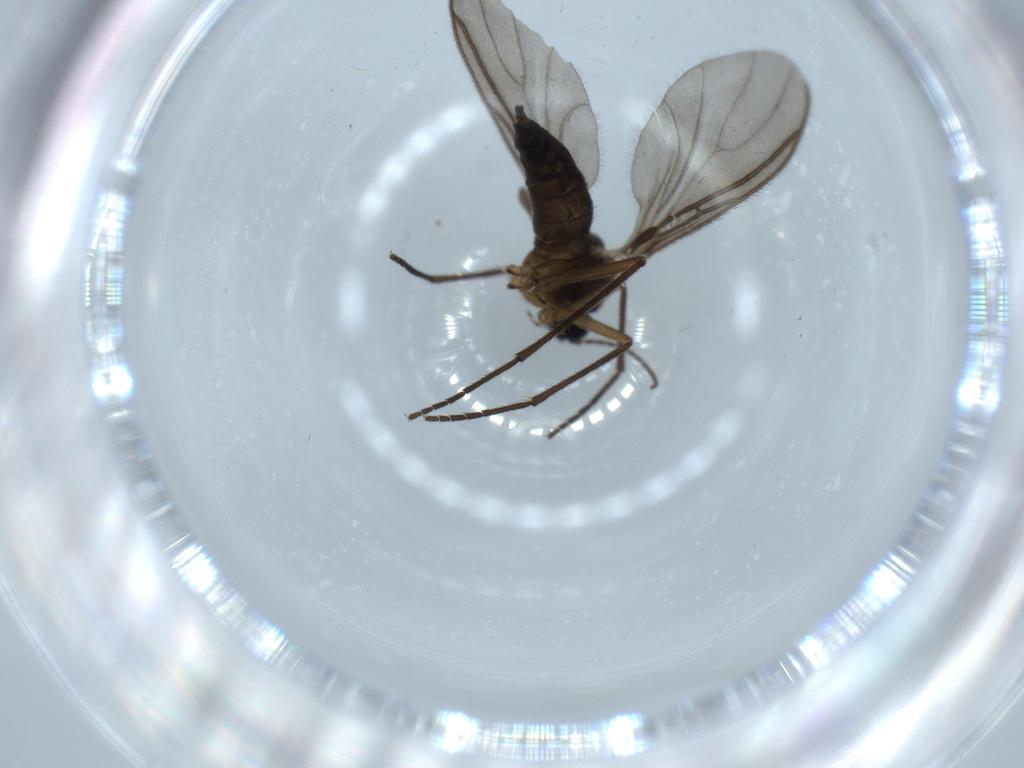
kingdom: Animalia
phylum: Arthropoda
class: Insecta
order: Diptera
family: Sciaridae
